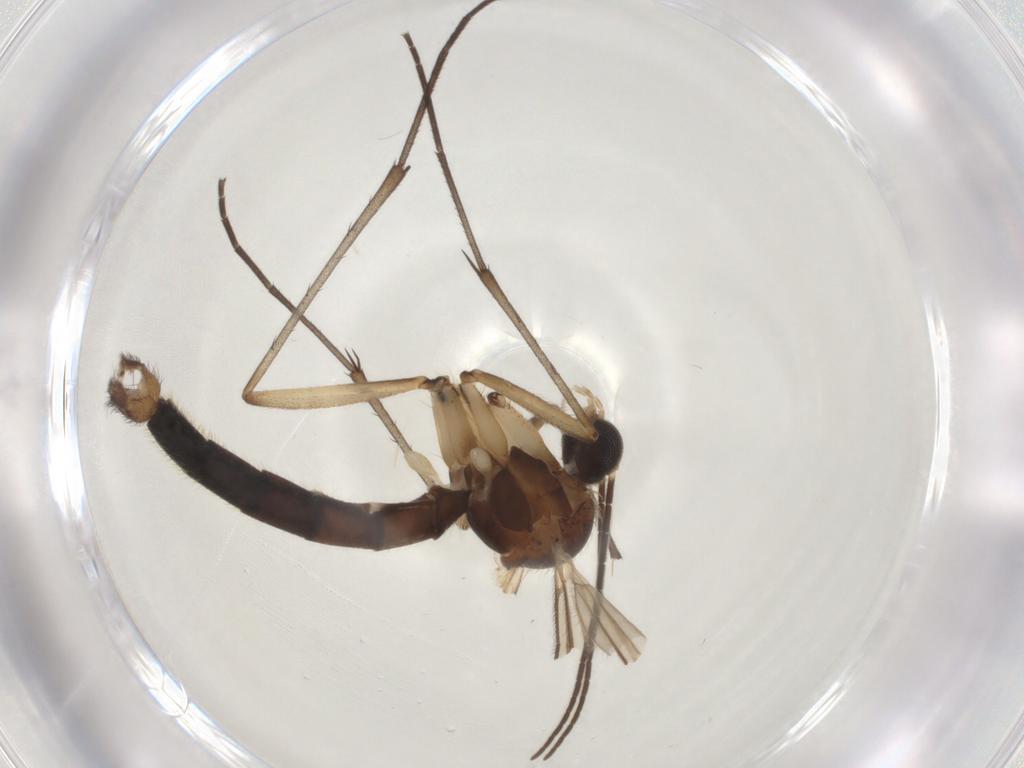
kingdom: Animalia
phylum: Arthropoda
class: Insecta
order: Diptera
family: Sciaridae
